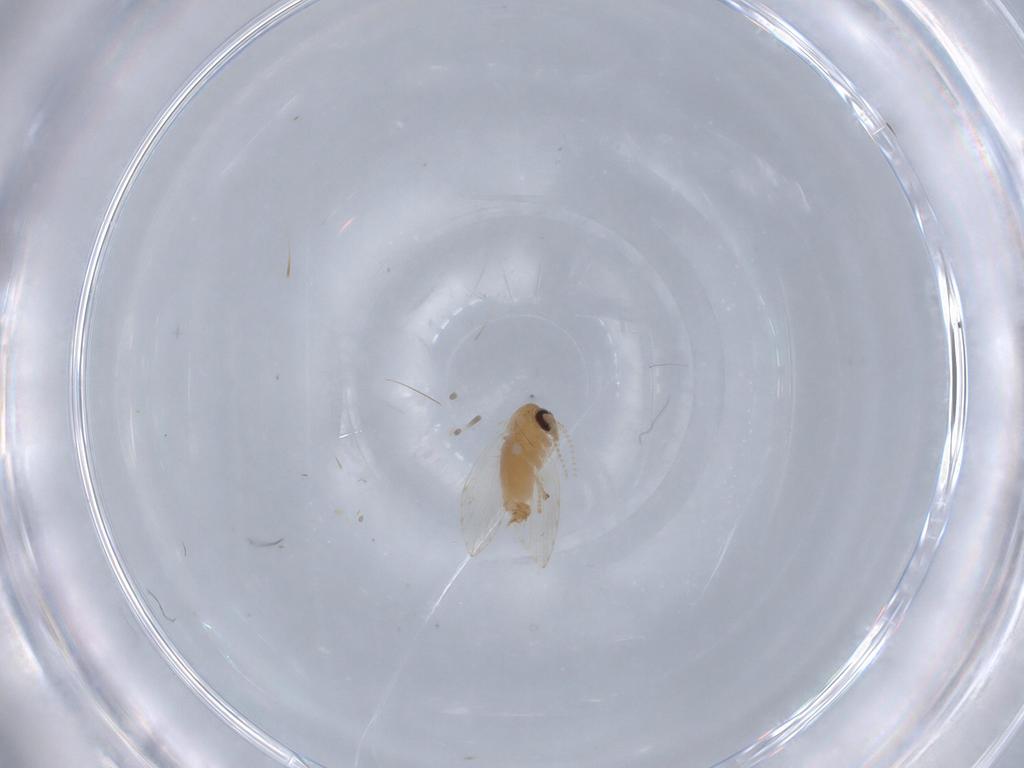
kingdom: Animalia
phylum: Arthropoda
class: Insecta
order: Diptera
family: Psychodidae
